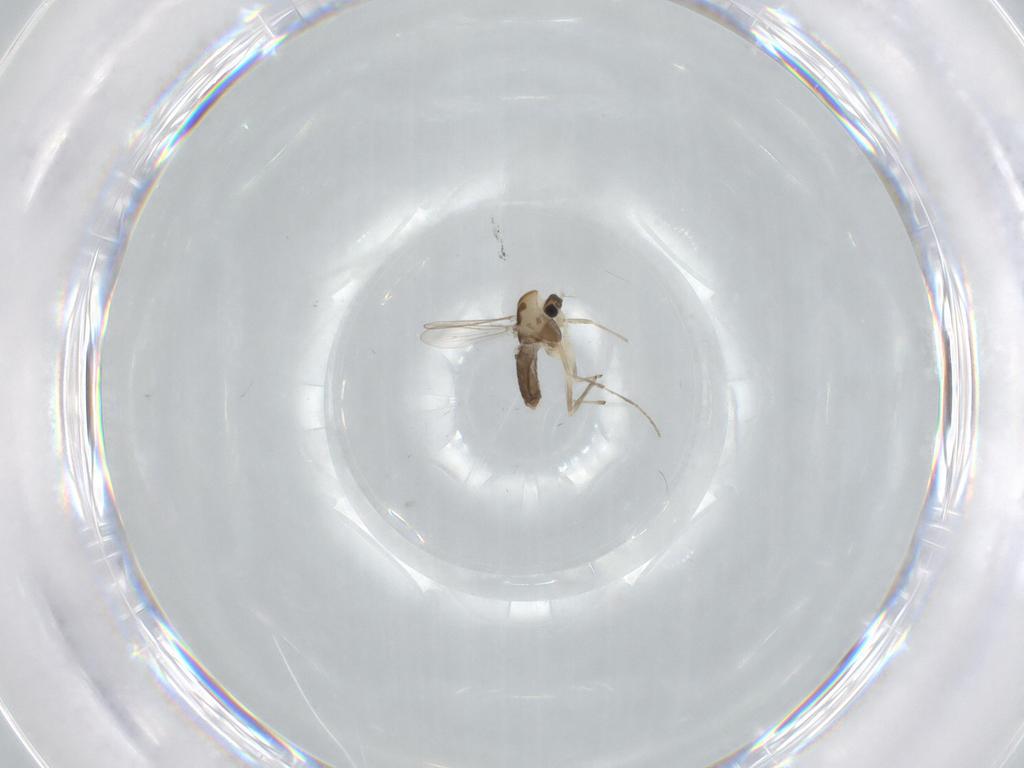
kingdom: Animalia
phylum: Arthropoda
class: Insecta
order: Diptera
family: Chironomidae
